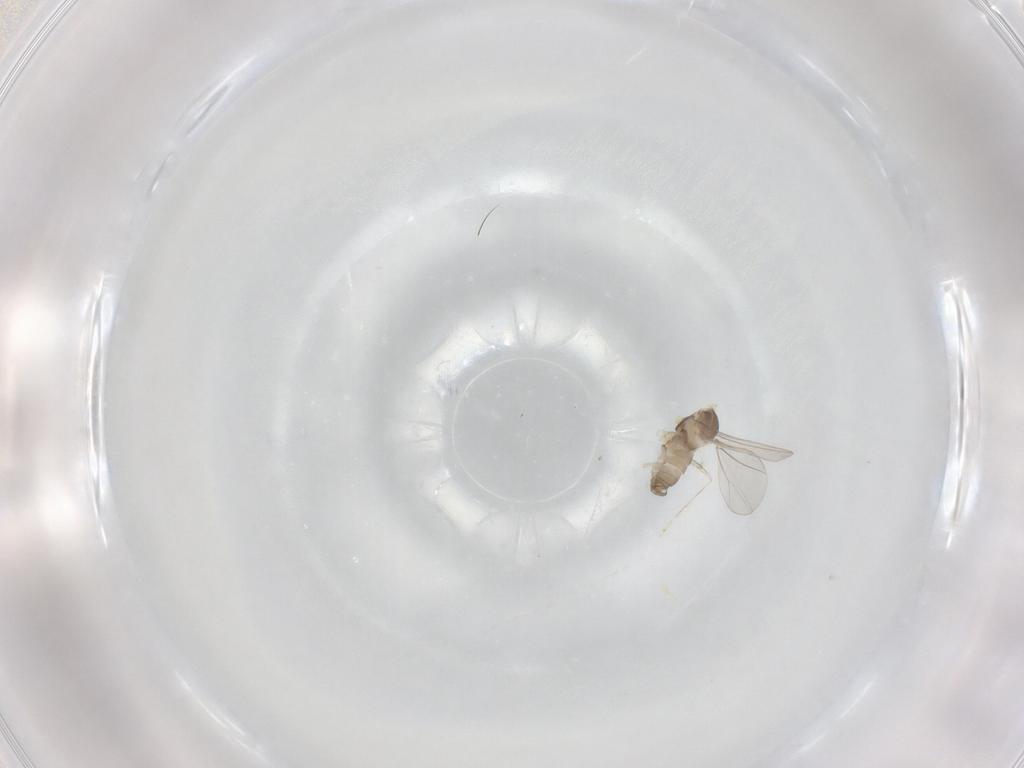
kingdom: Animalia
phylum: Arthropoda
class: Insecta
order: Diptera
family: Cecidomyiidae
